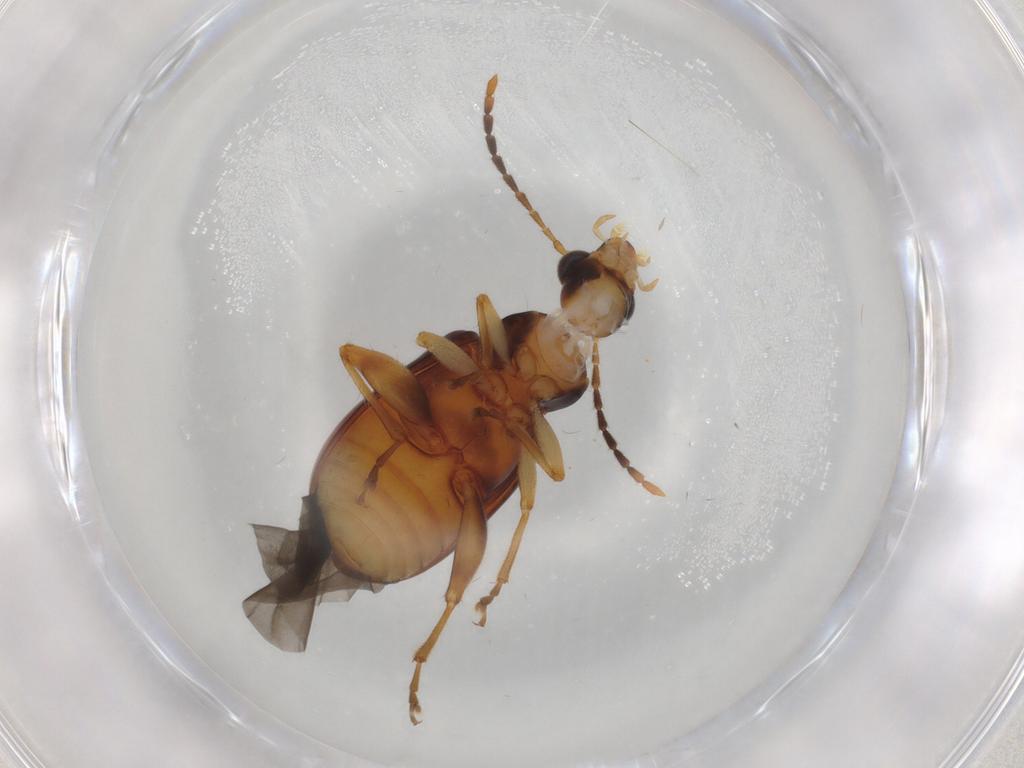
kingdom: Animalia
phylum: Arthropoda
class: Insecta
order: Coleoptera
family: Chrysomelidae
